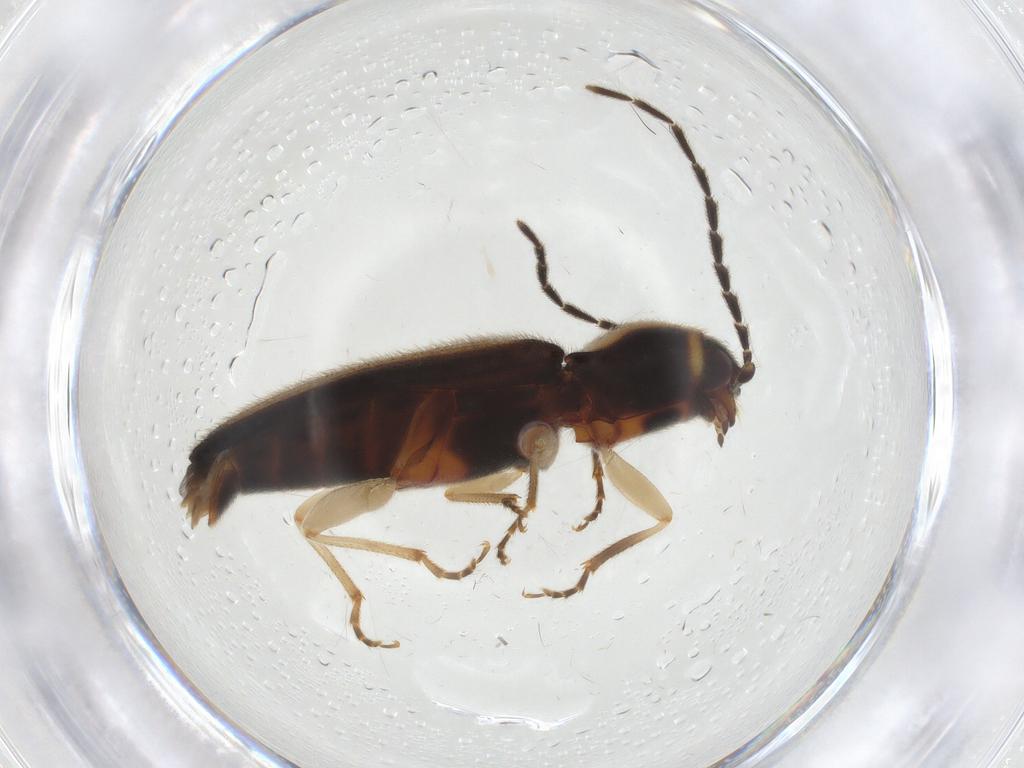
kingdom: Animalia
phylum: Arthropoda
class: Insecta
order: Coleoptera
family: Elateridae
